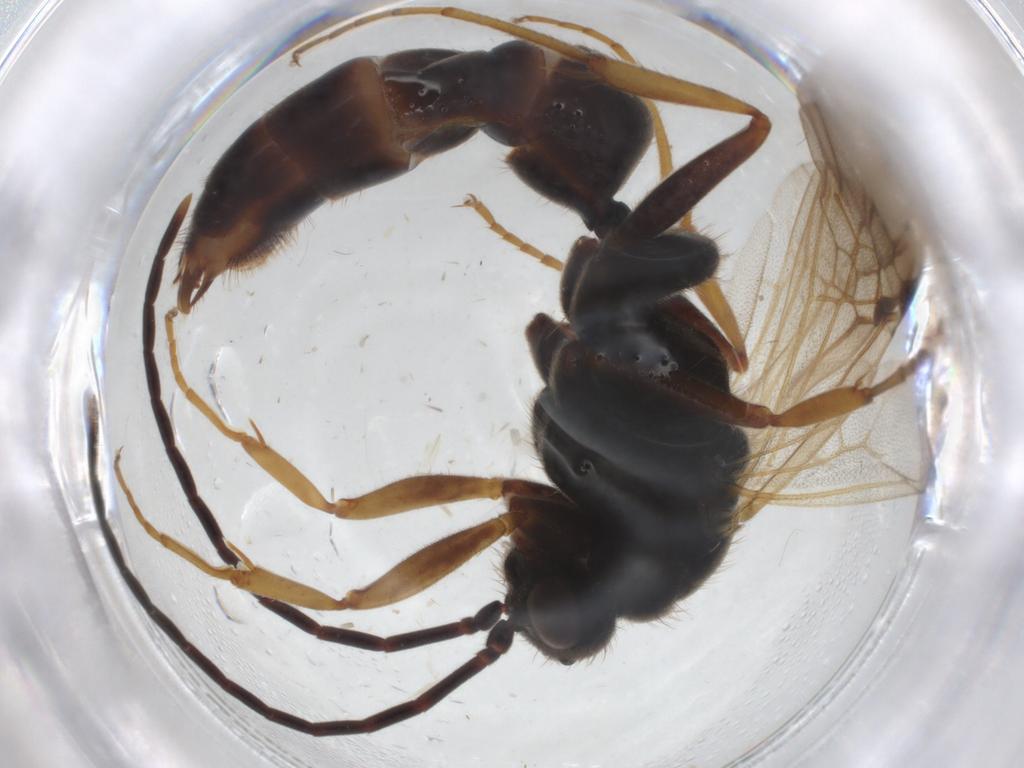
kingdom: Animalia
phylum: Arthropoda
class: Insecta
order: Hymenoptera
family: Formicidae
